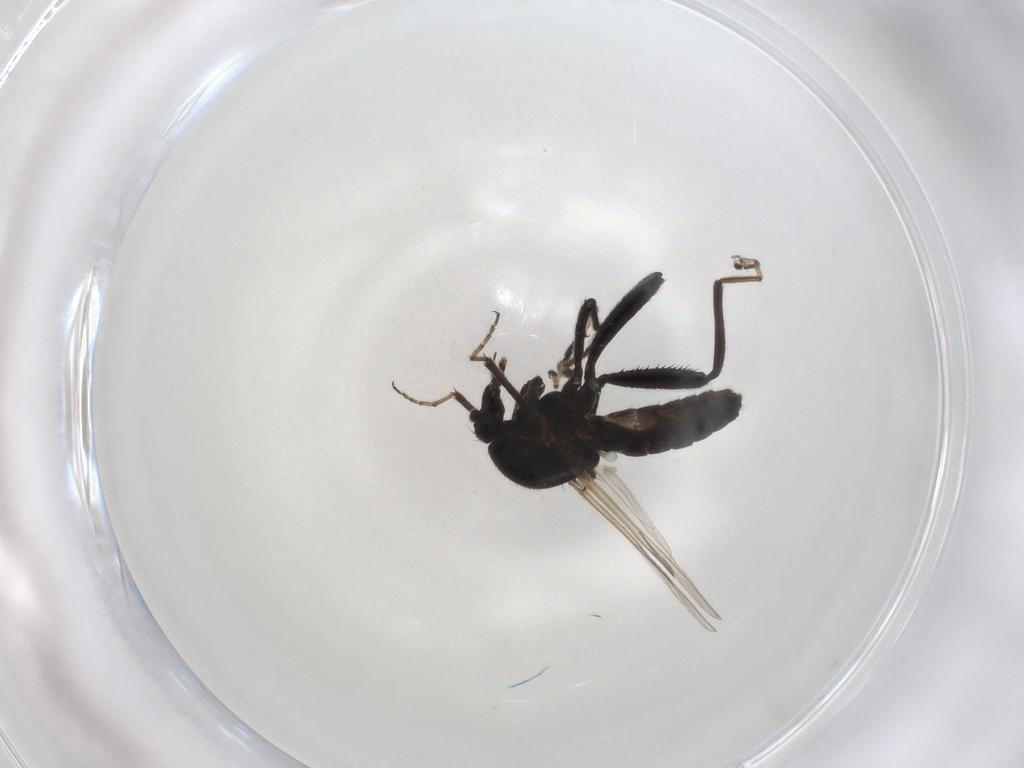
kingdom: Animalia
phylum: Arthropoda
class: Insecta
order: Diptera
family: Ceratopogonidae
